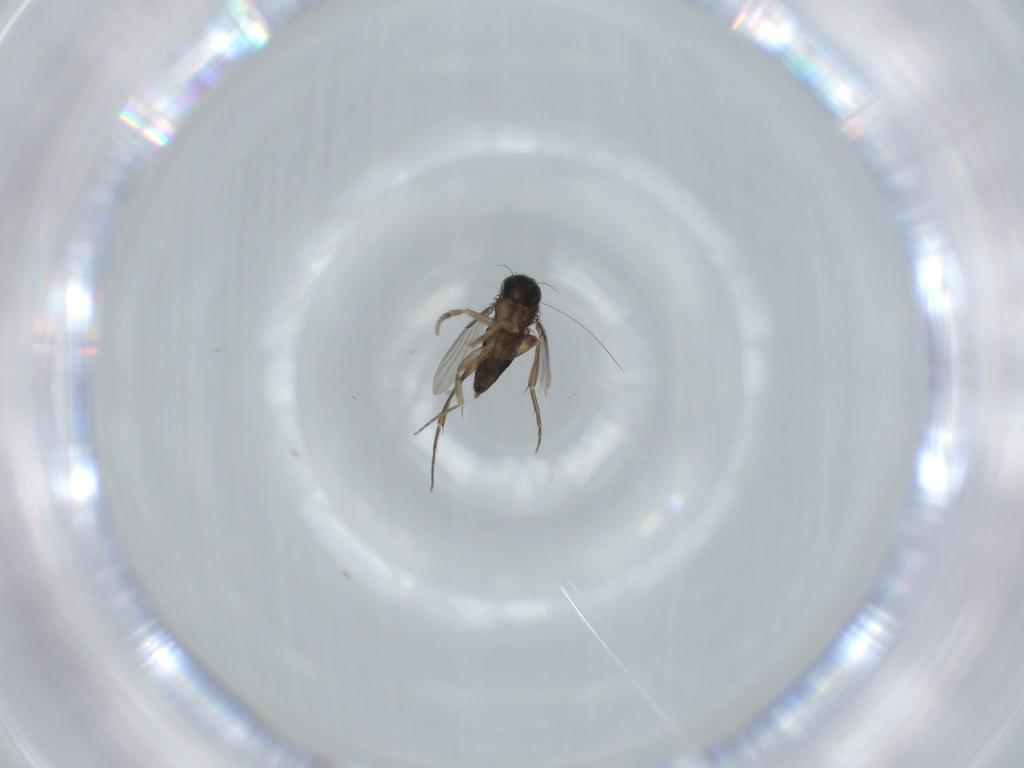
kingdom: Animalia
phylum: Arthropoda
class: Insecta
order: Diptera
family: Phoridae
